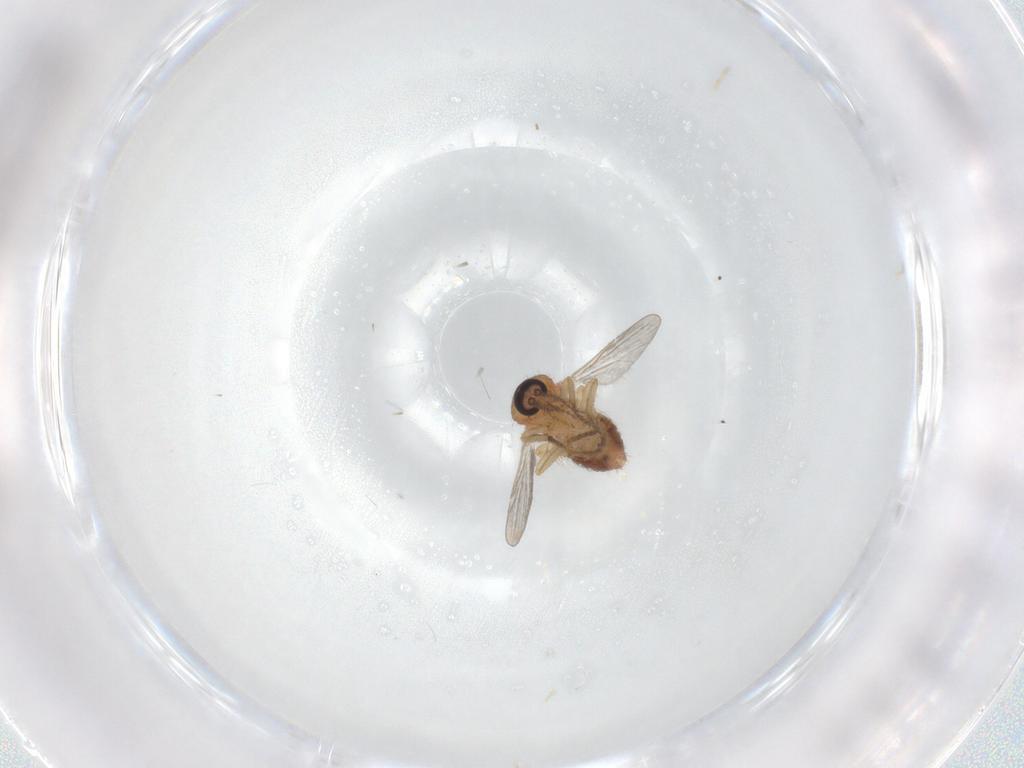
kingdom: Animalia
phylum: Arthropoda
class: Insecta
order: Diptera
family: Ceratopogonidae
